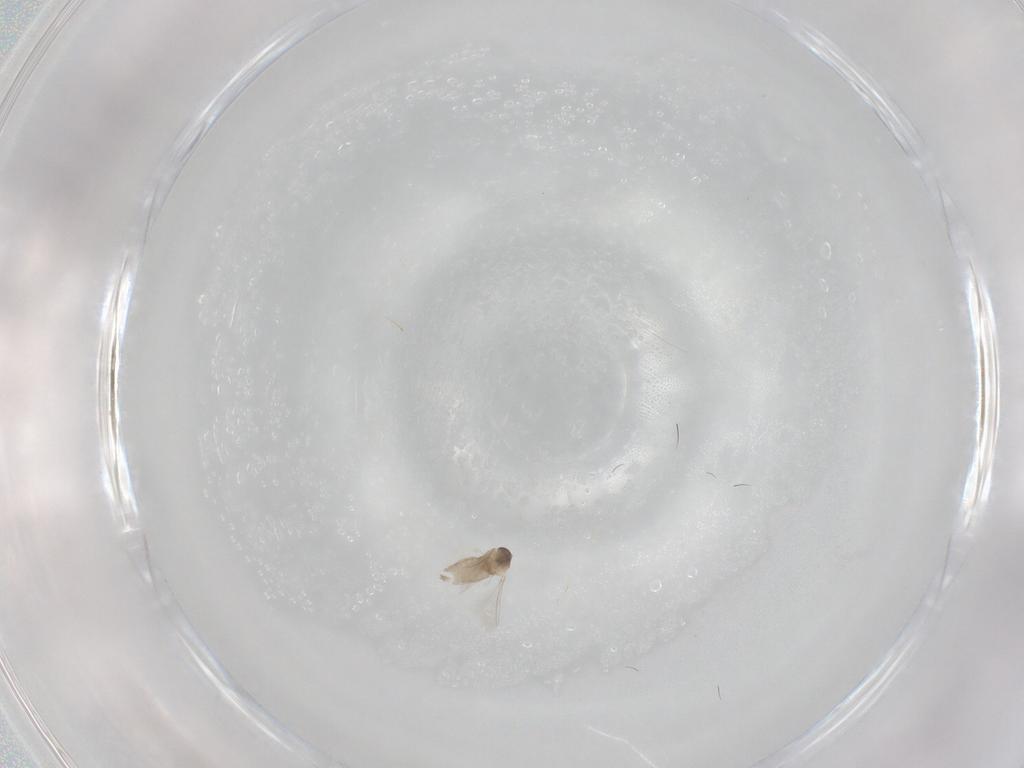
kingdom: Animalia
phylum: Arthropoda
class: Insecta
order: Diptera
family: Cecidomyiidae
